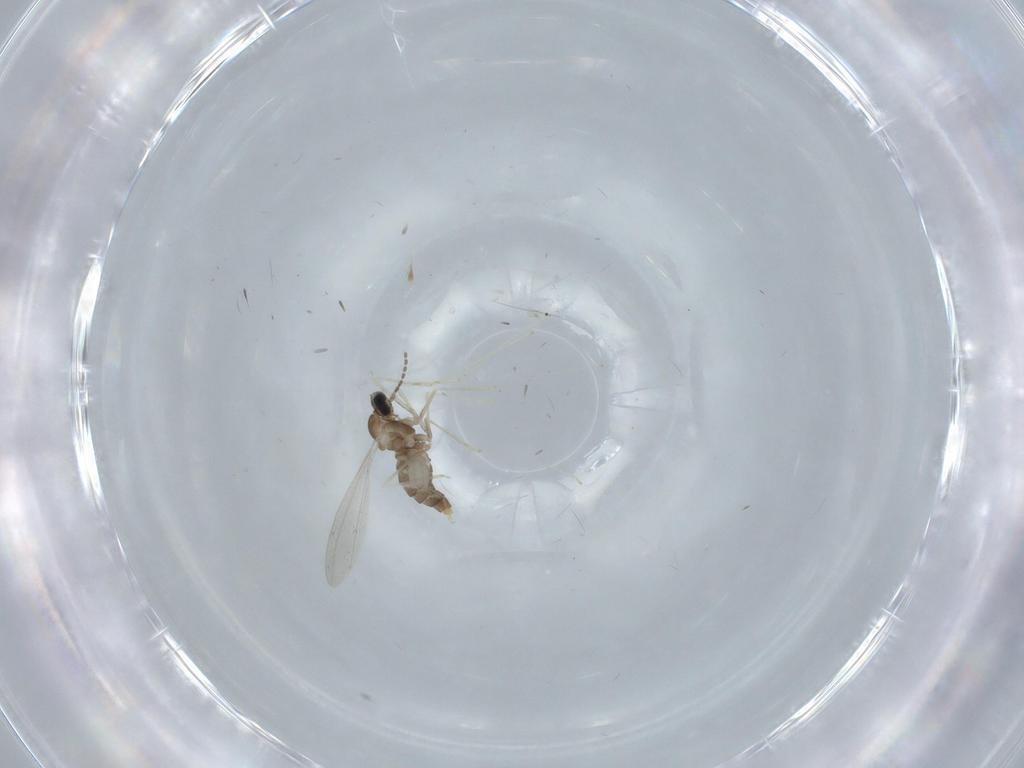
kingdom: Animalia
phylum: Arthropoda
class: Insecta
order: Diptera
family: Cecidomyiidae
